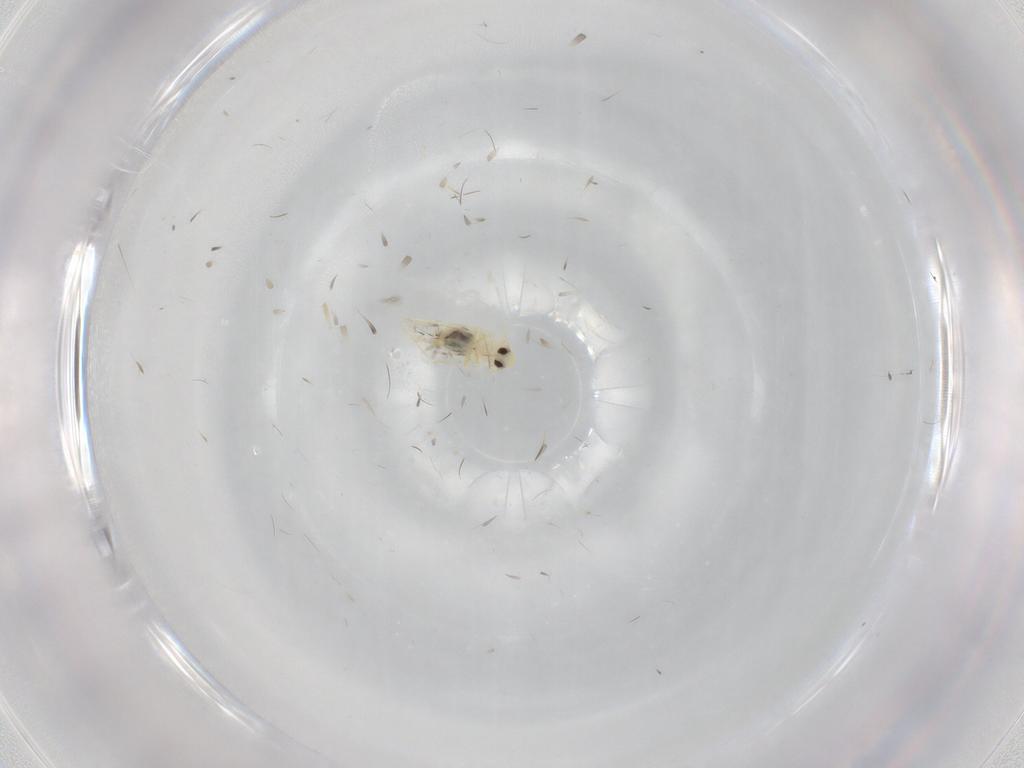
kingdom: Animalia
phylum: Arthropoda
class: Insecta
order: Hemiptera
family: Aleyrodidae
